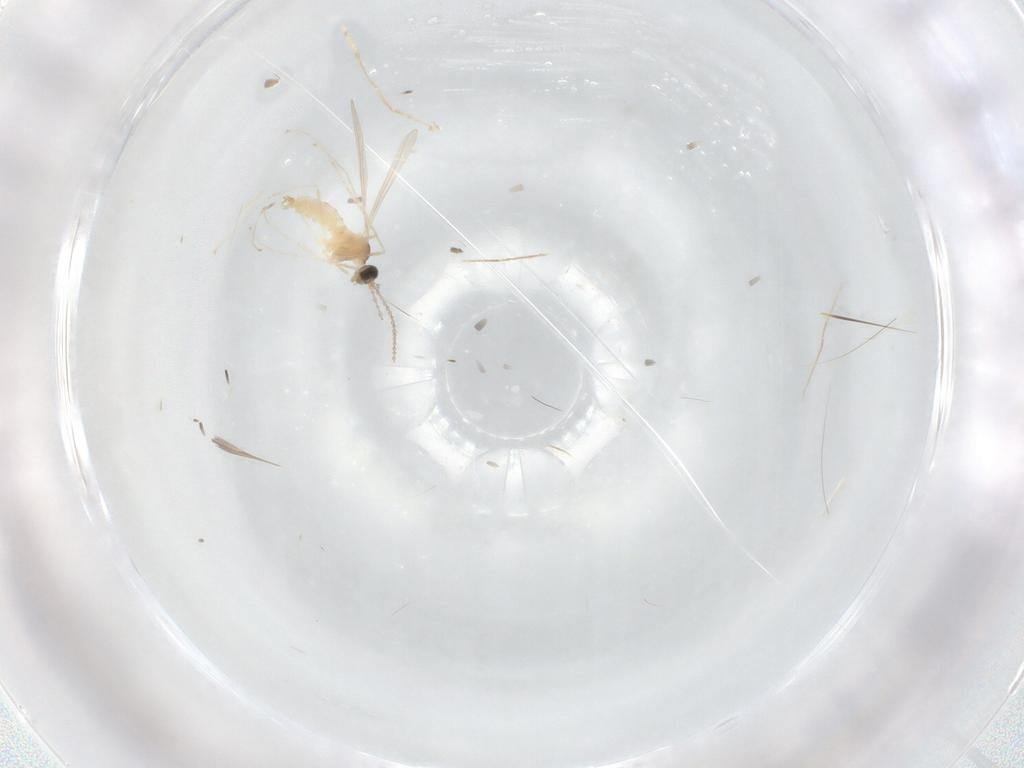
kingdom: Animalia
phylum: Arthropoda
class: Insecta
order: Diptera
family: Cecidomyiidae
